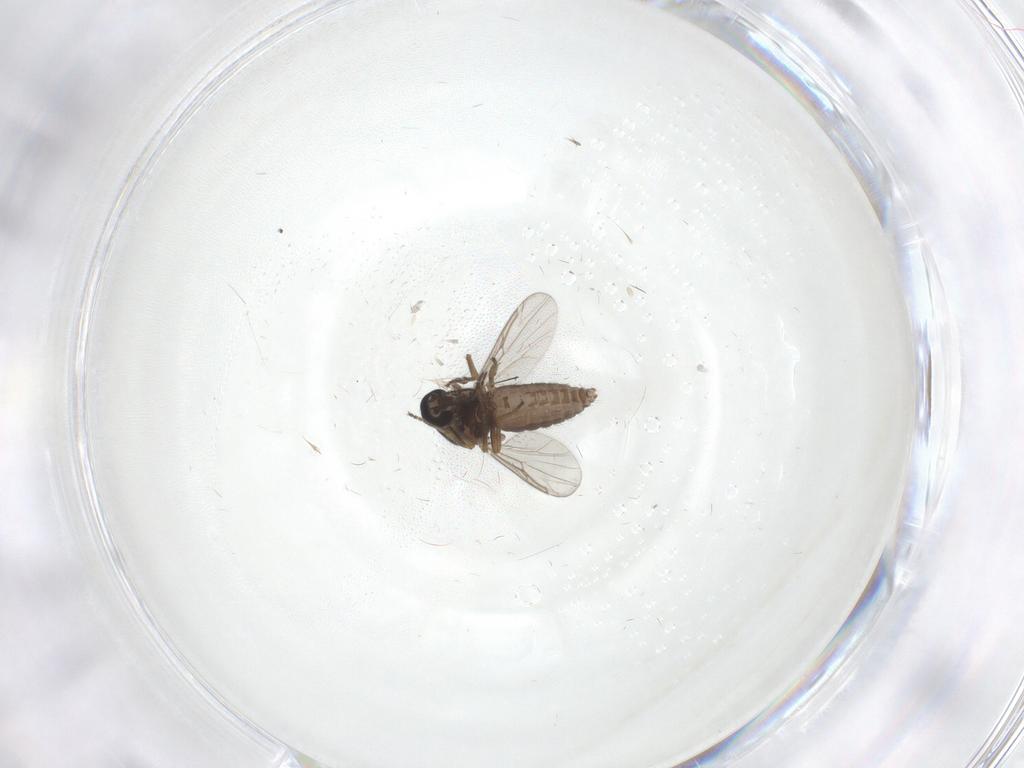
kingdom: Animalia
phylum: Arthropoda
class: Insecta
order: Diptera
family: Ceratopogonidae
